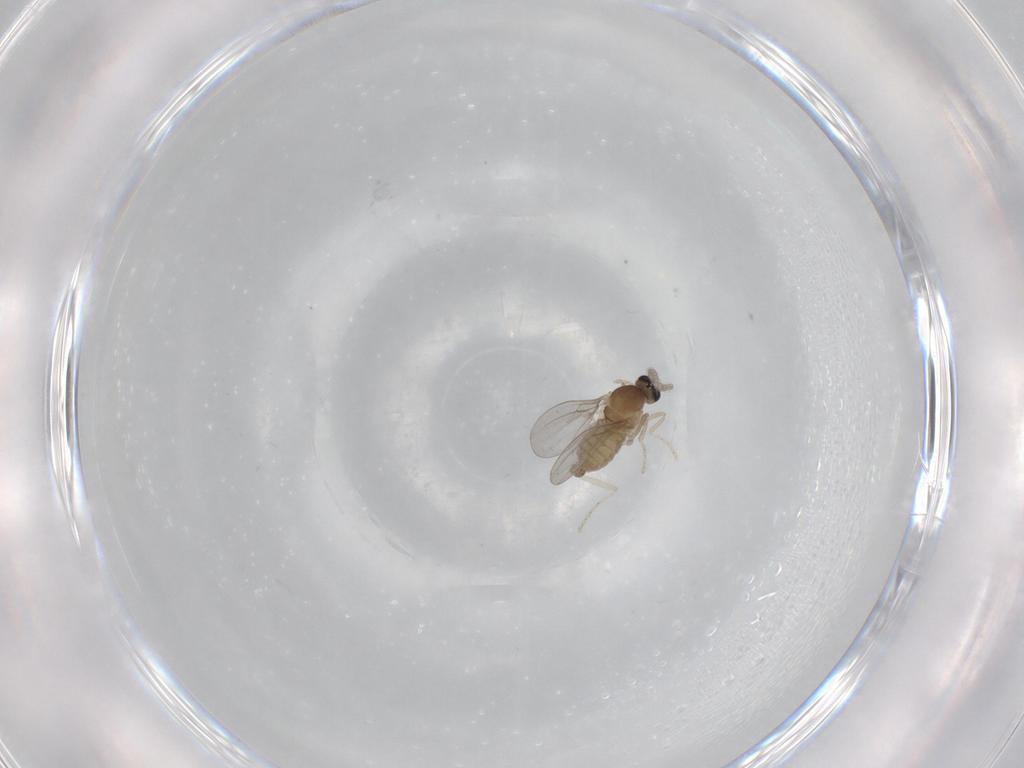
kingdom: Animalia
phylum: Arthropoda
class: Insecta
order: Diptera
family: Cecidomyiidae
